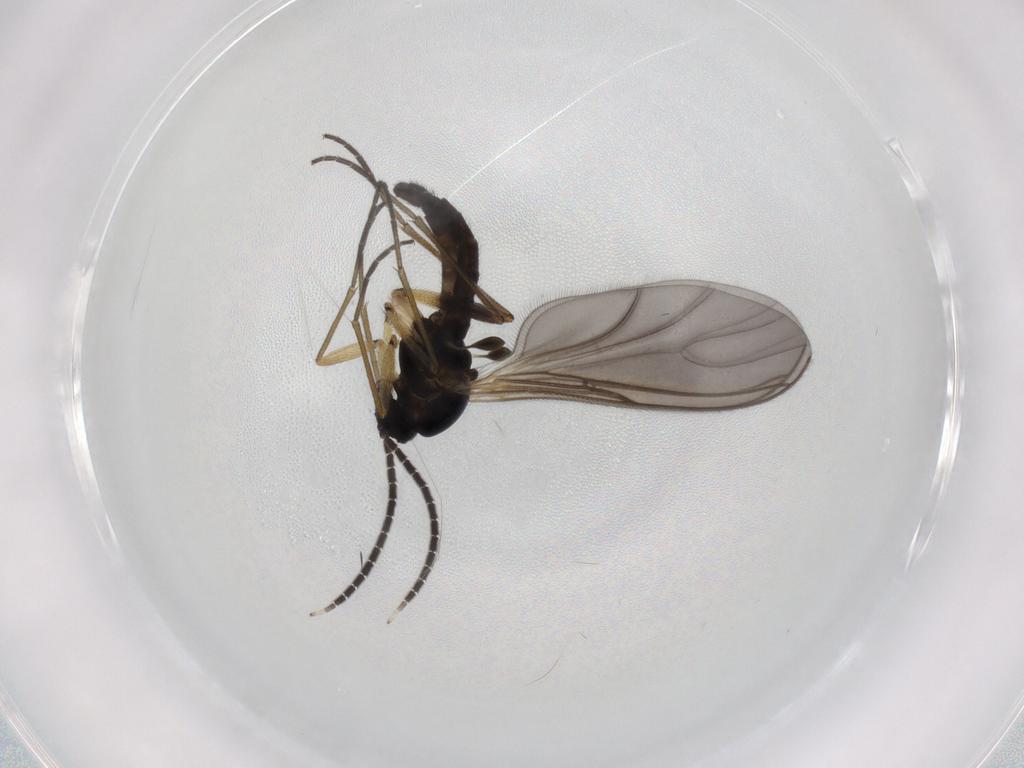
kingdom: Animalia
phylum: Arthropoda
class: Insecta
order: Diptera
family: Sciaridae
